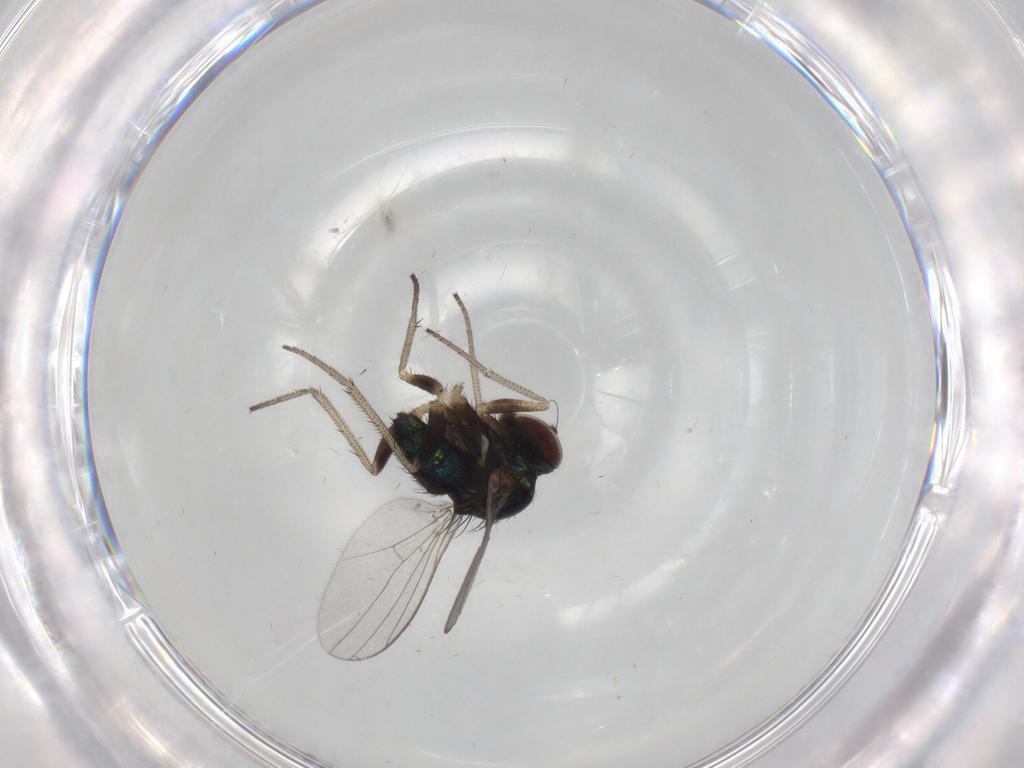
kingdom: Animalia
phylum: Arthropoda
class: Insecta
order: Diptera
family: Dolichopodidae
